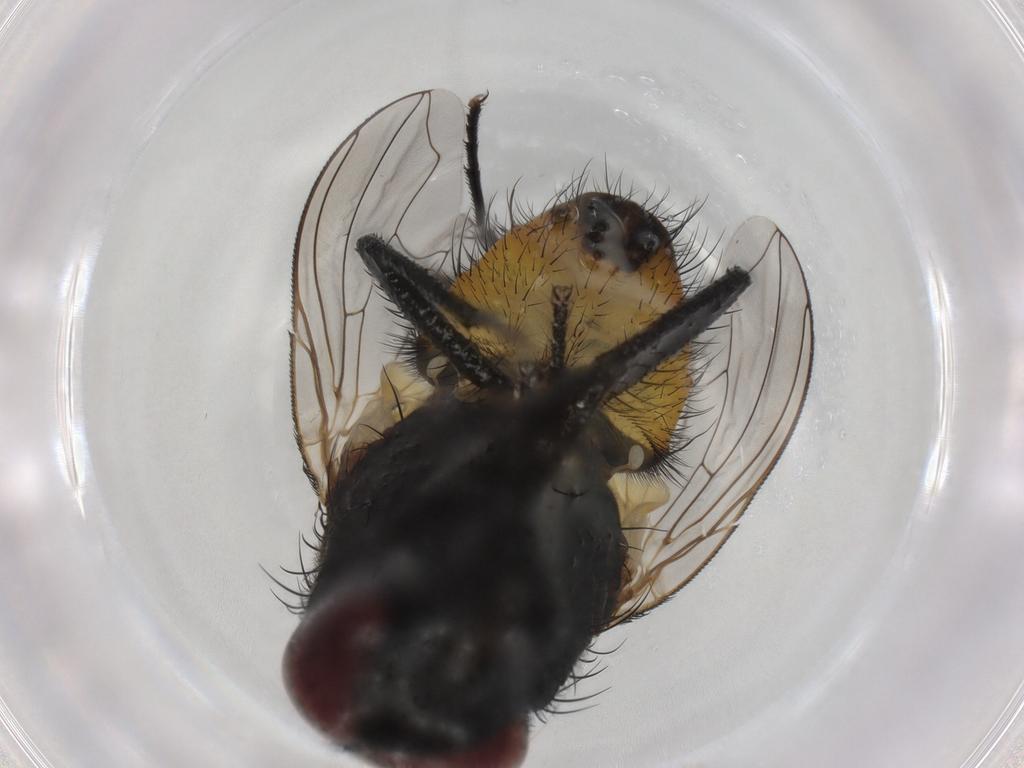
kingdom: Animalia
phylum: Arthropoda
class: Insecta
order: Diptera
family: Muscidae
